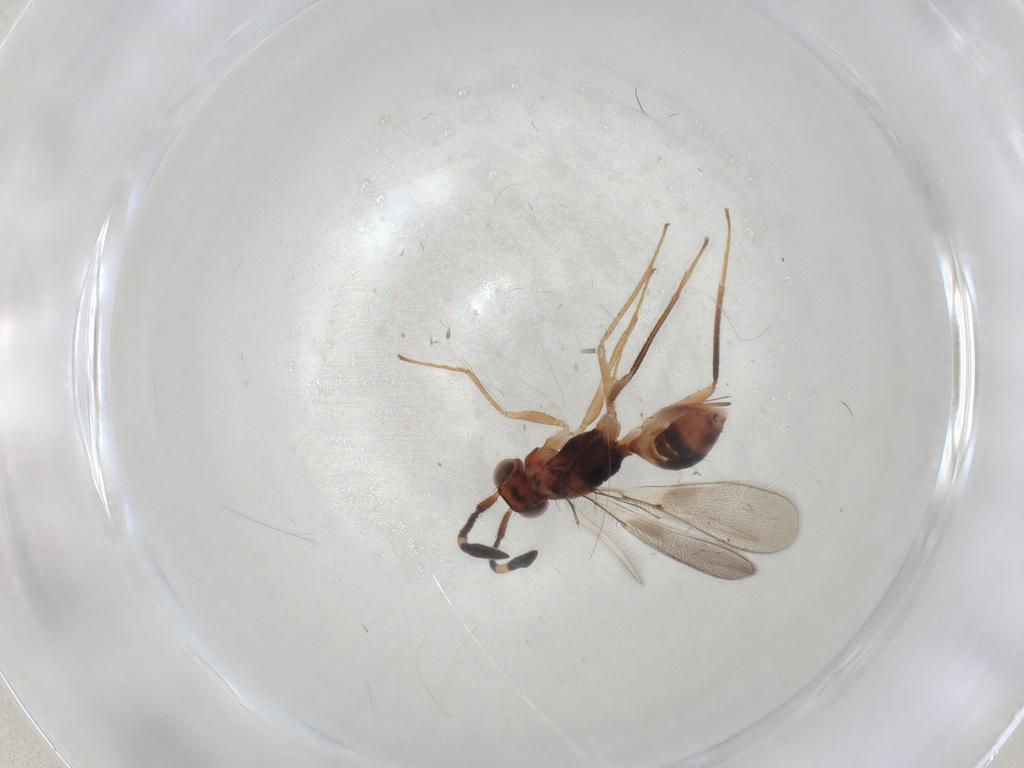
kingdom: Animalia
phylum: Arthropoda
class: Insecta
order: Hymenoptera
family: Mymaridae
